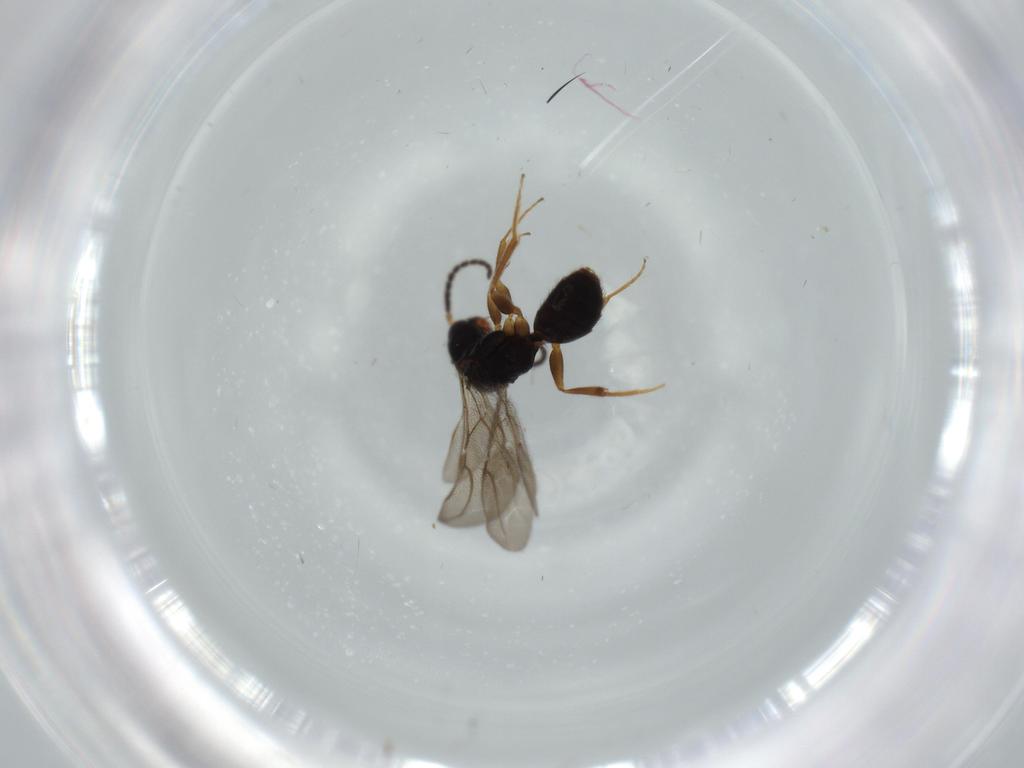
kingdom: Animalia
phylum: Arthropoda
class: Insecta
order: Hymenoptera
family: Bethylidae
